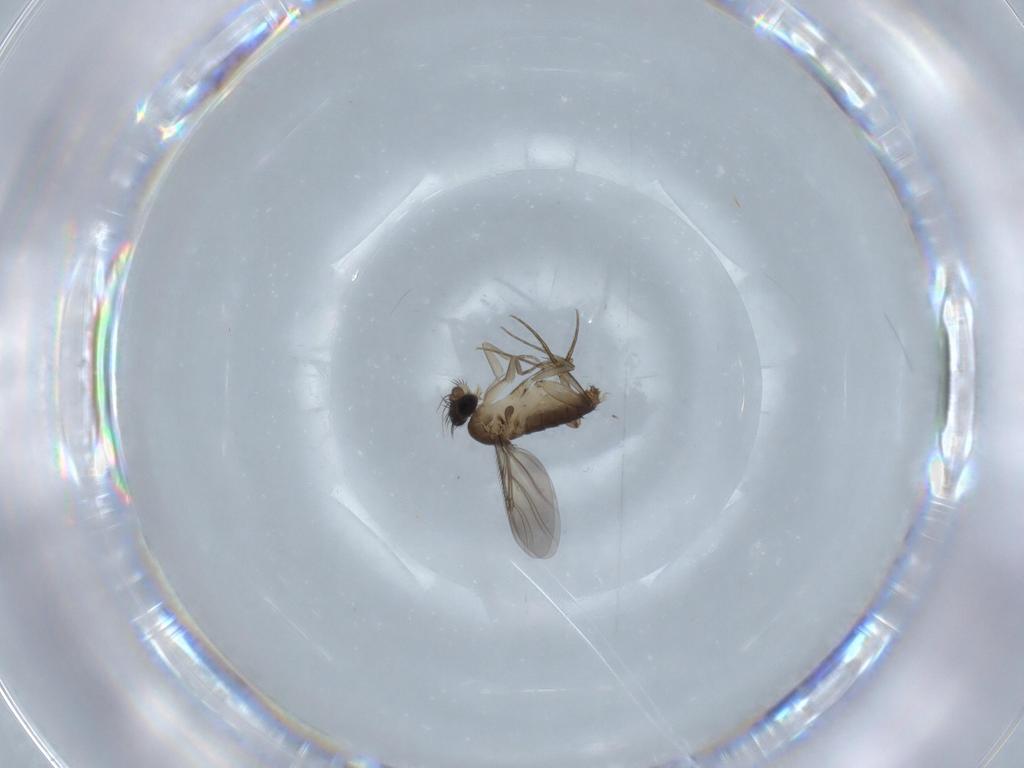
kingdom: Animalia
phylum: Arthropoda
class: Insecta
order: Diptera
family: Phoridae
